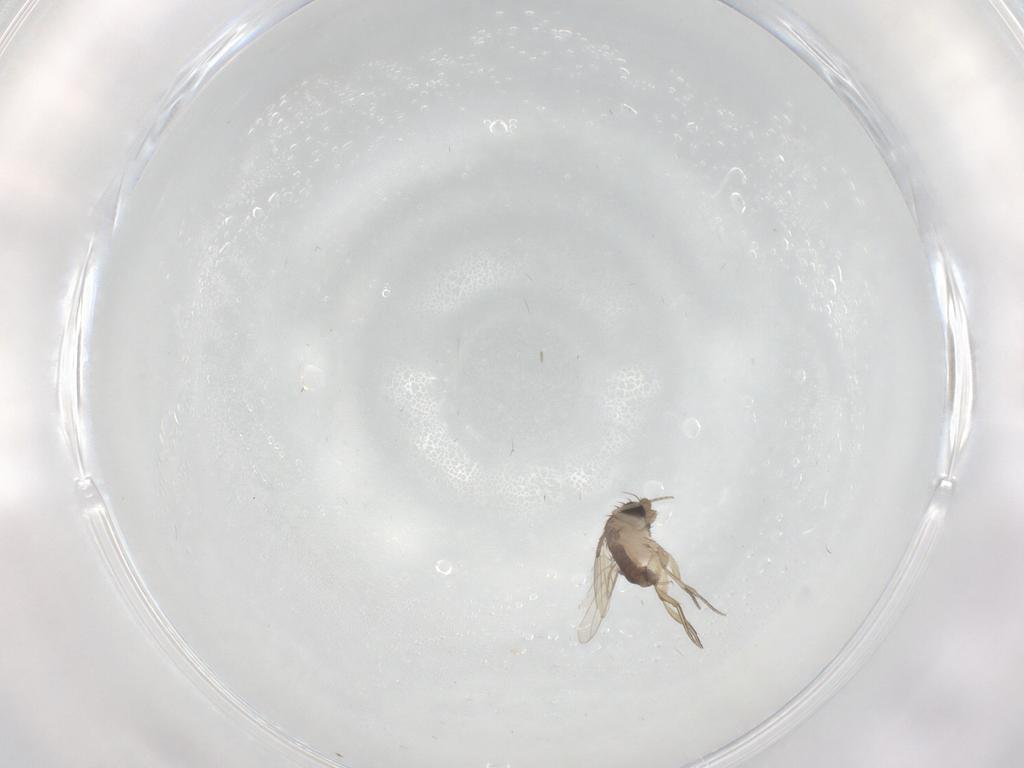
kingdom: Animalia
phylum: Arthropoda
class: Insecta
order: Diptera
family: Phoridae
